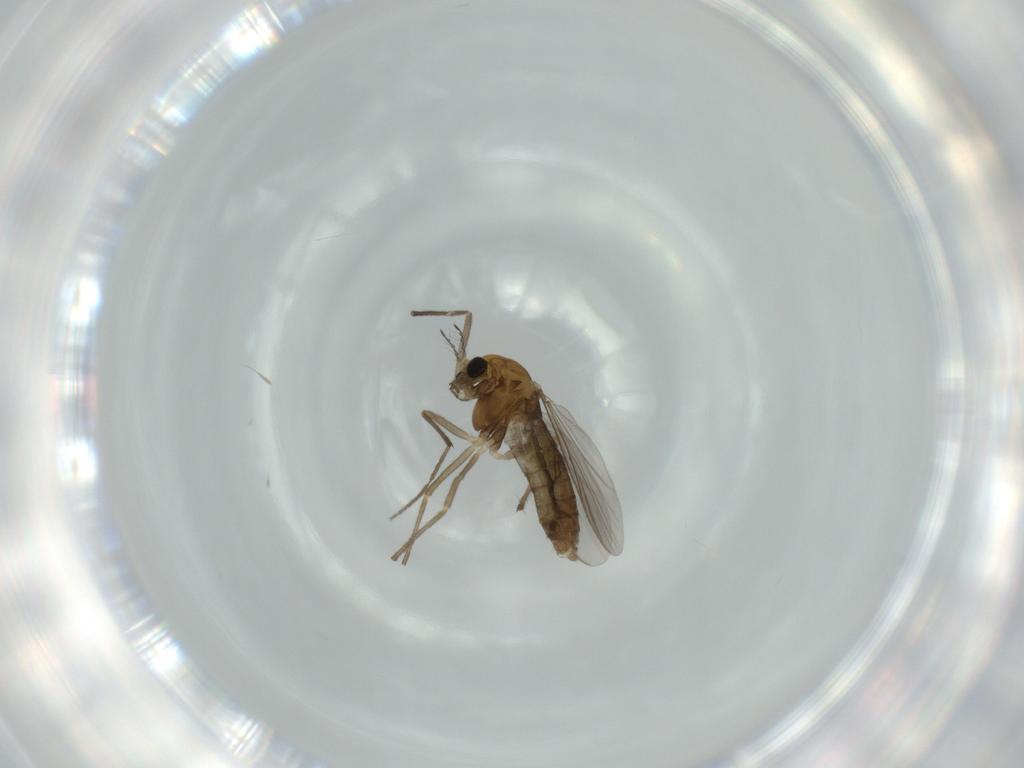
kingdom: Animalia
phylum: Arthropoda
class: Insecta
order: Diptera
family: Chironomidae
